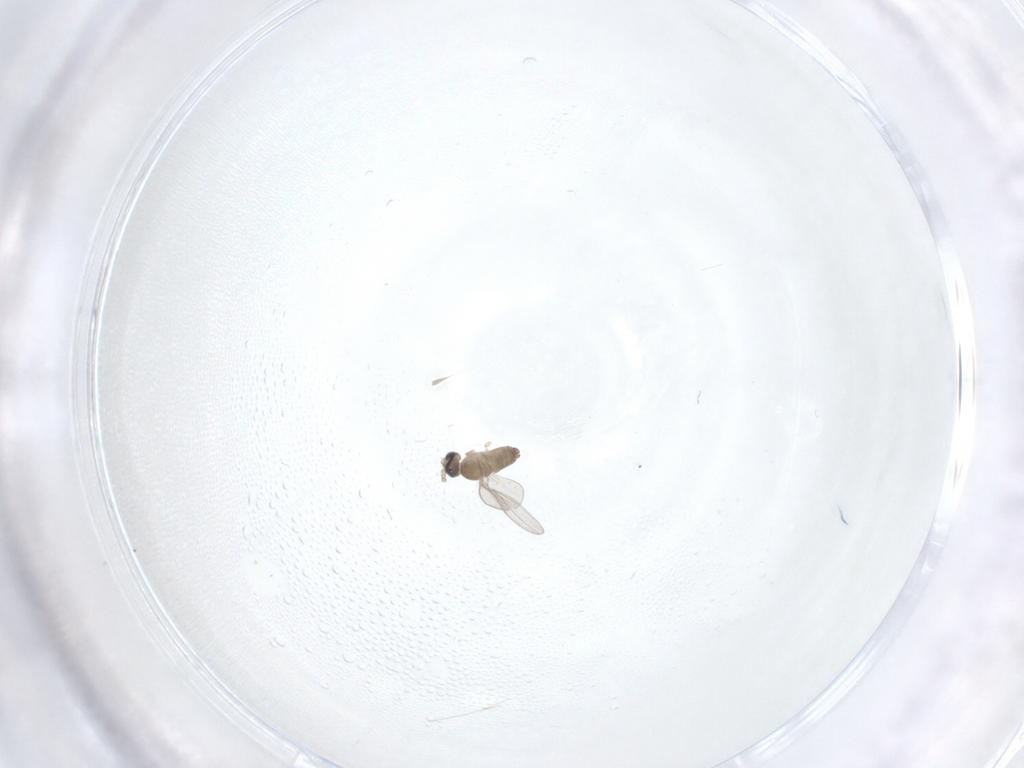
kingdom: Animalia
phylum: Arthropoda
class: Insecta
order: Diptera
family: Cecidomyiidae
